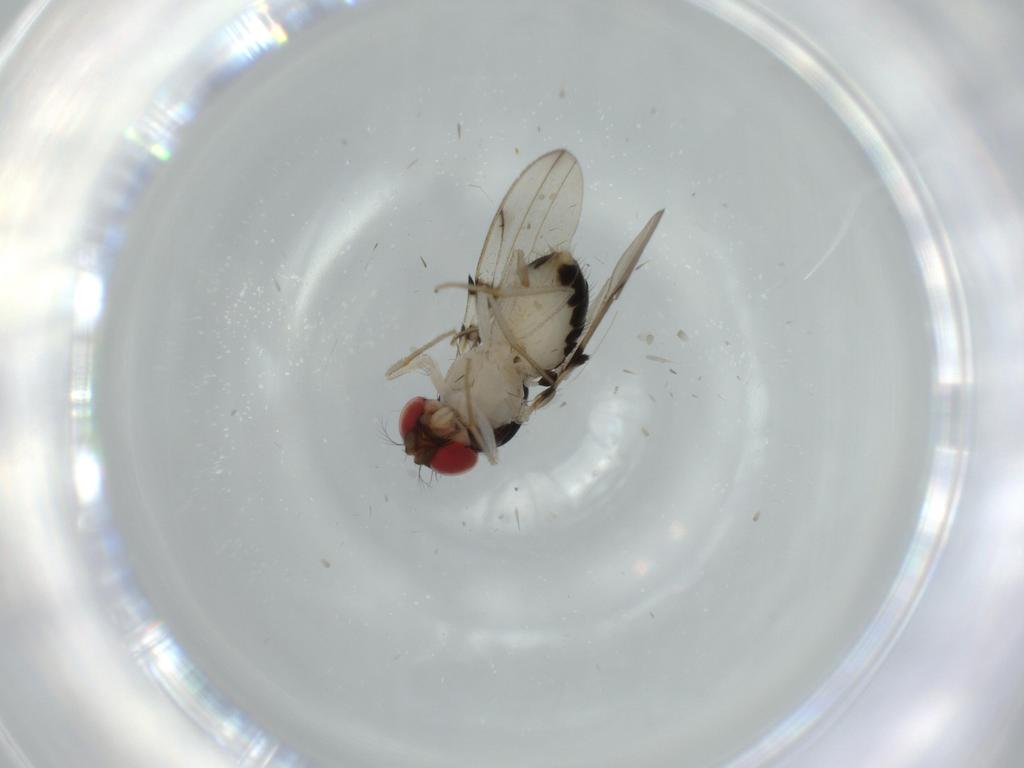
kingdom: Animalia
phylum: Arthropoda
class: Insecta
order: Diptera
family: Drosophilidae
